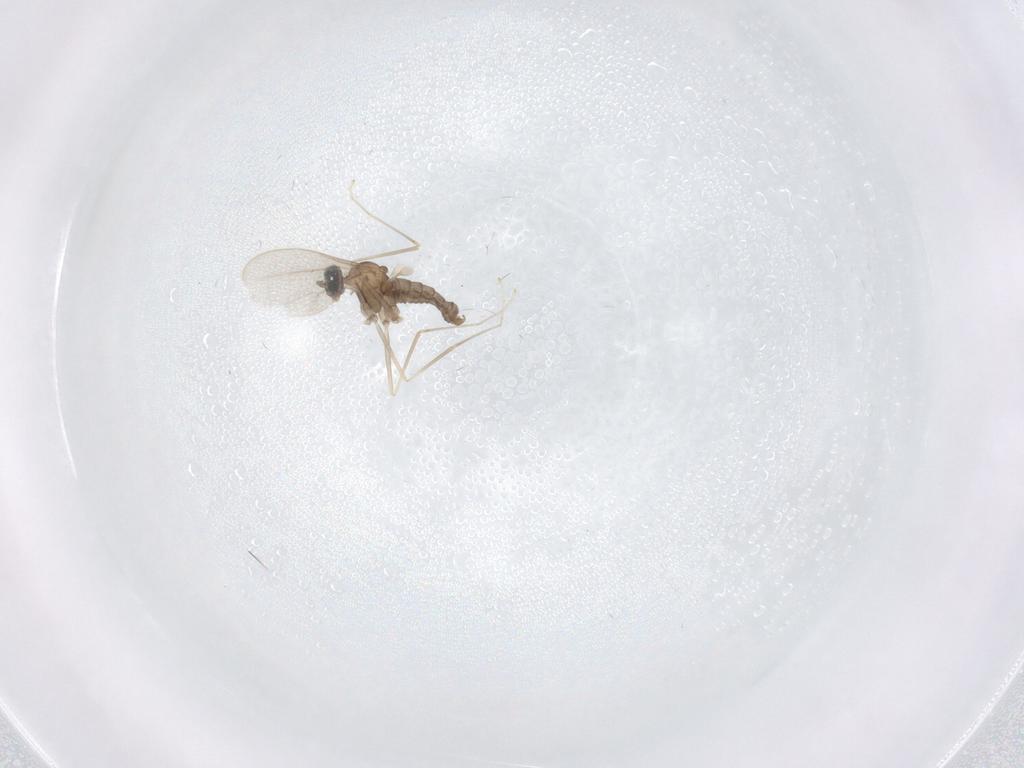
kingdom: Animalia
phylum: Arthropoda
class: Insecta
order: Diptera
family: Cecidomyiidae
